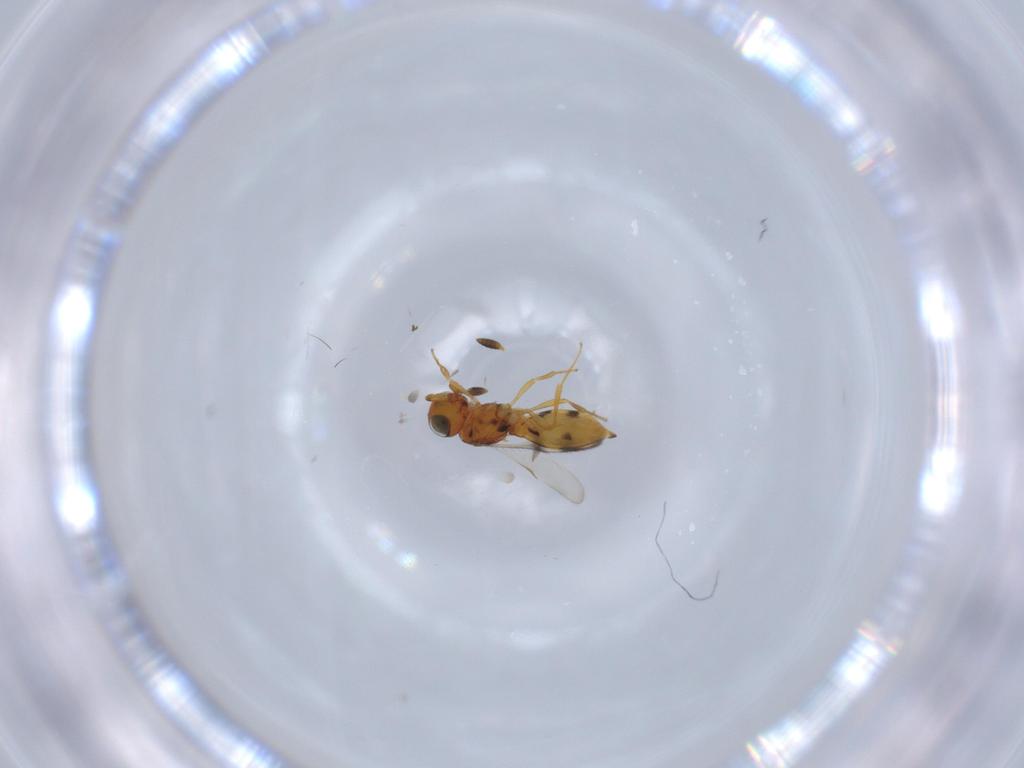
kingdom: Animalia
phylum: Arthropoda
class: Insecta
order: Hymenoptera
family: Scelionidae
